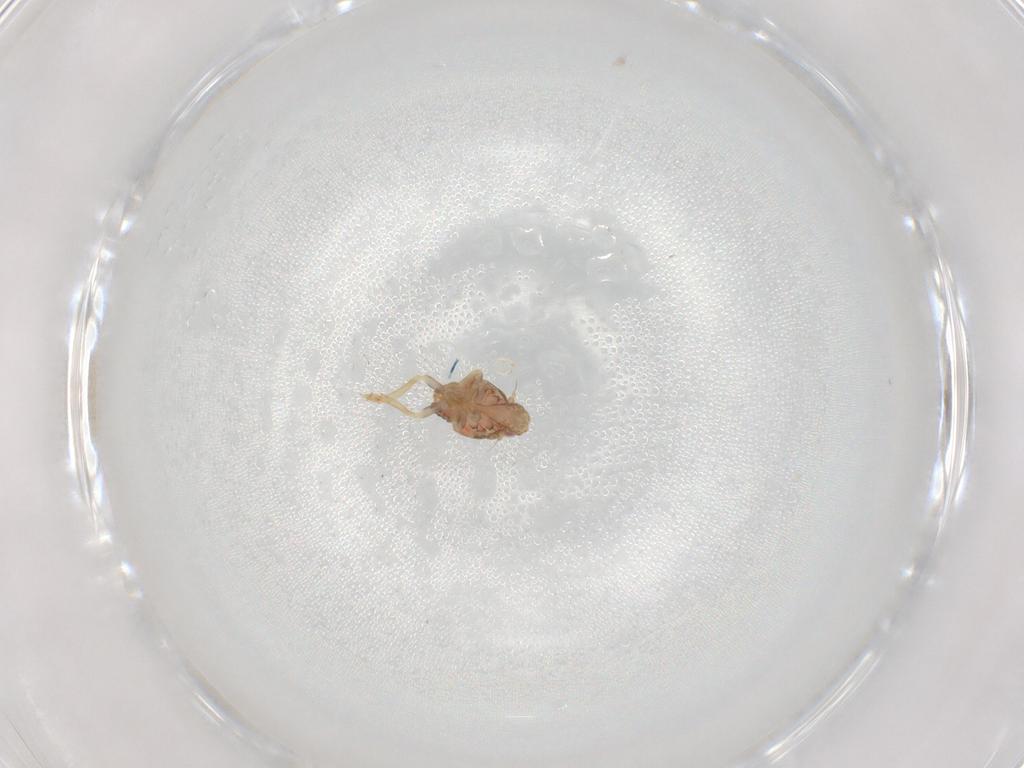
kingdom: Animalia
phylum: Arthropoda
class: Insecta
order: Hemiptera
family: Flatidae
